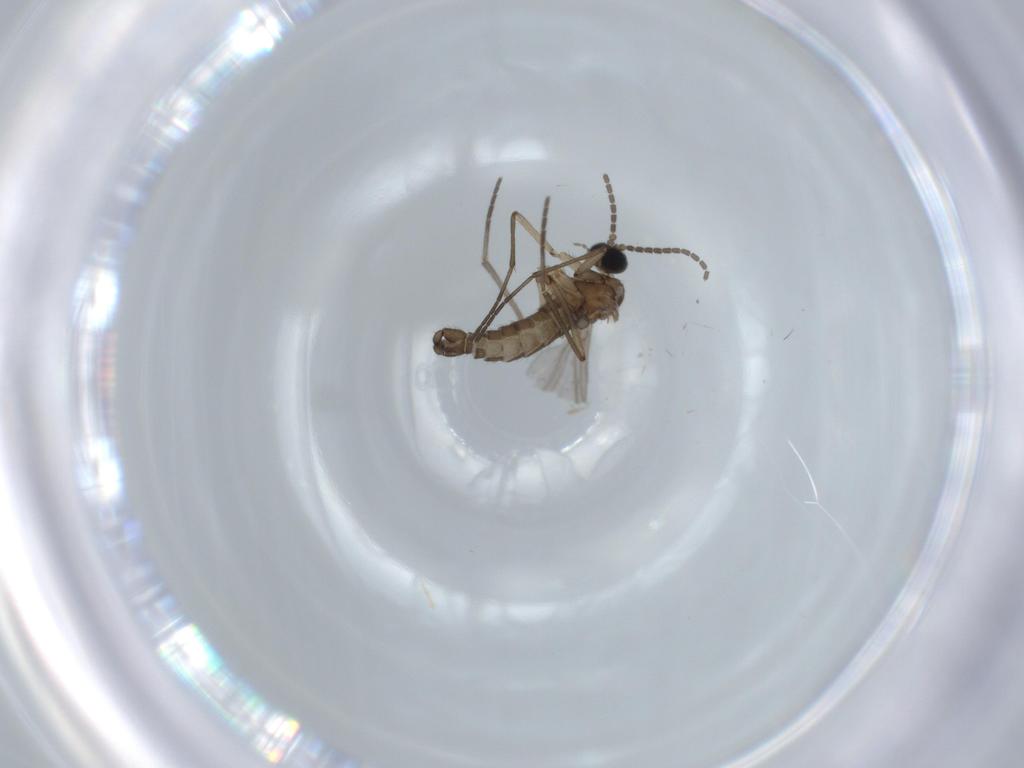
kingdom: Animalia
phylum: Arthropoda
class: Insecta
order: Diptera
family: Sciaridae
